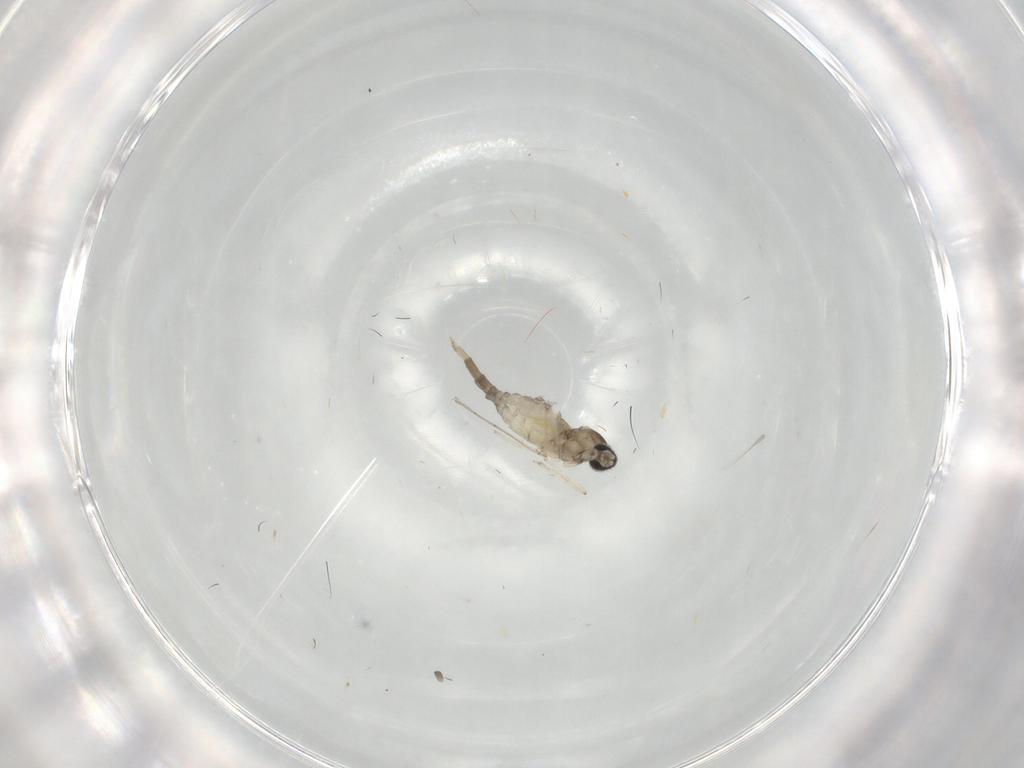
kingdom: Animalia
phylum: Arthropoda
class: Insecta
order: Diptera
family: Cecidomyiidae
